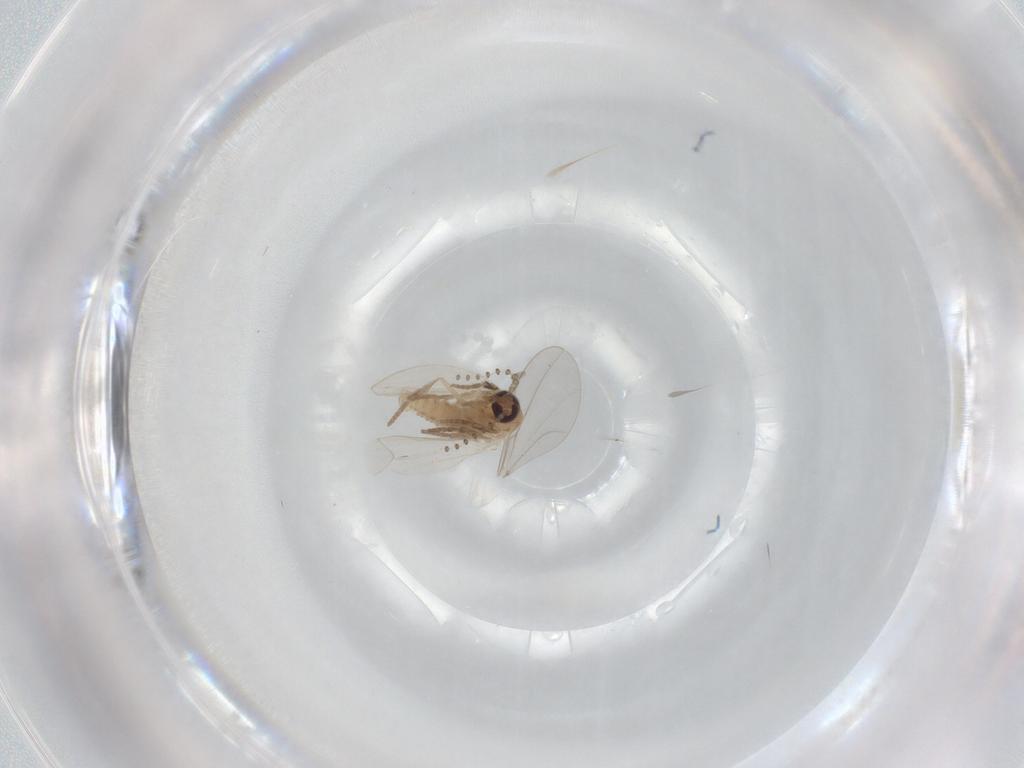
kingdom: Animalia
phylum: Arthropoda
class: Insecta
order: Diptera
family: Psychodidae
